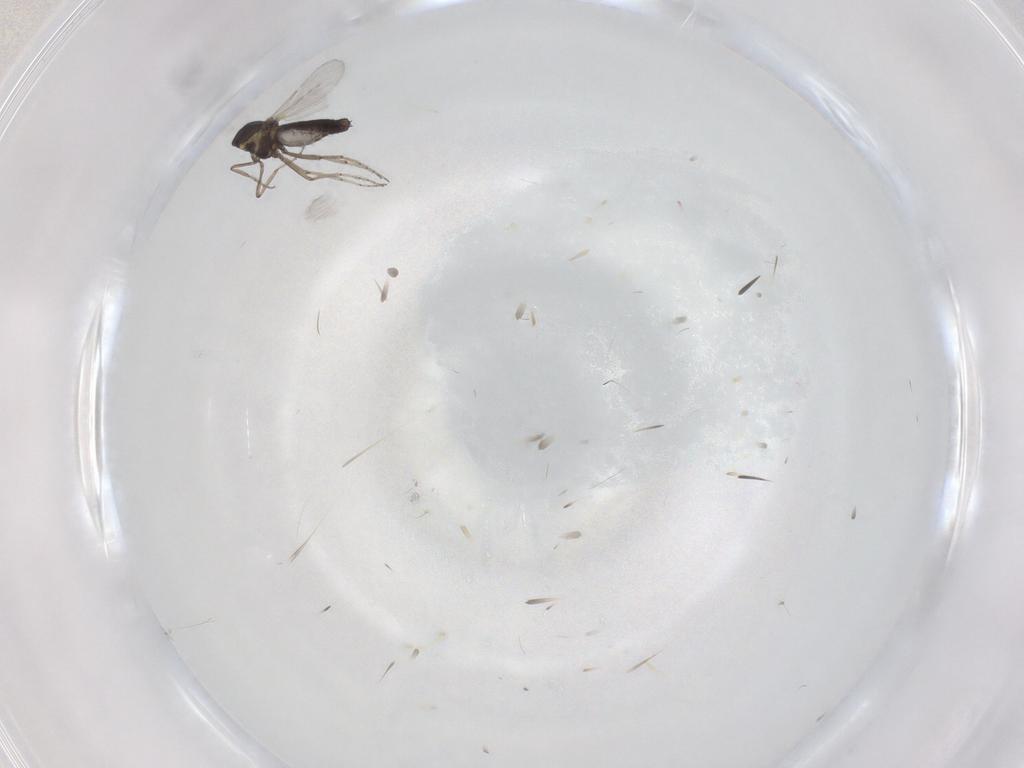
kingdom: Animalia
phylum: Arthropoda
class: Insecta
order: Diptera
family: Ceratopogonidae
